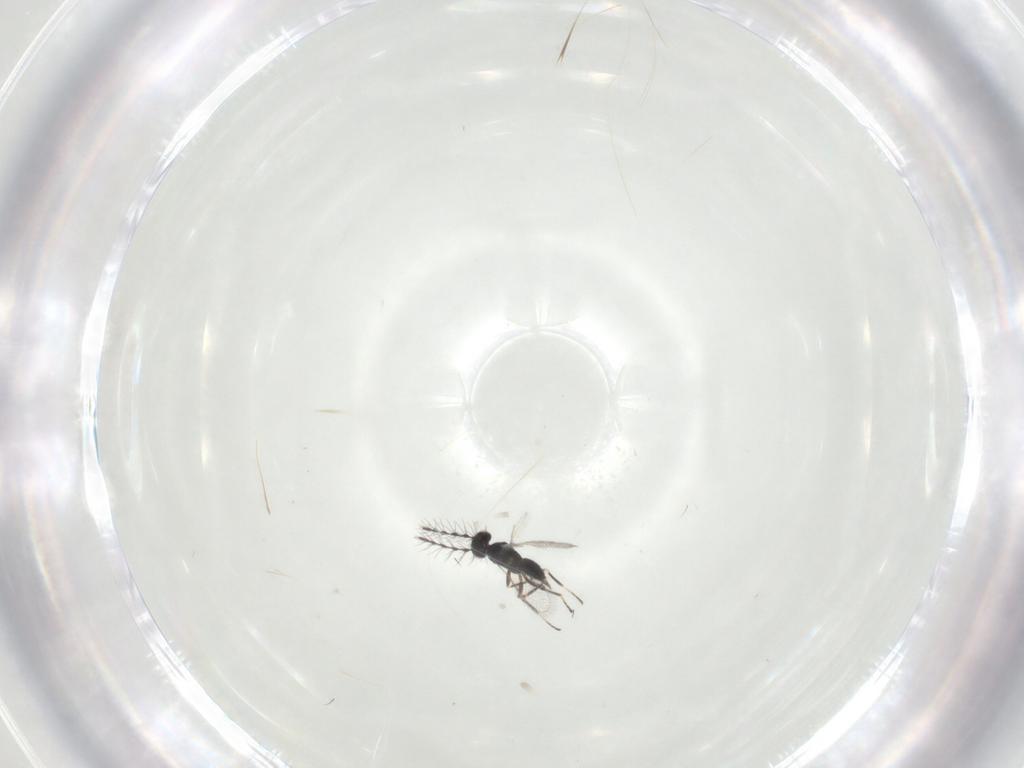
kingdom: Animalia
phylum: Arthropoda
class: Insecta
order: Hymenoptera
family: Eulophidae
